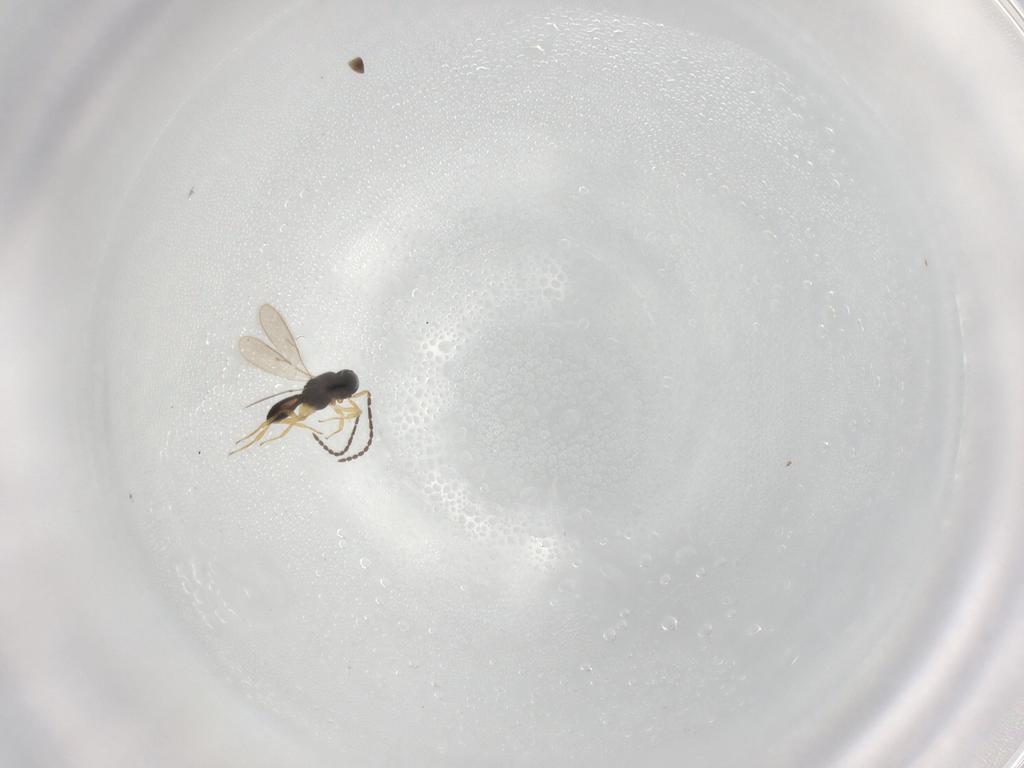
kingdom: Animalia
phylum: Arthropoda
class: Insecta
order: Hymenoptera
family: Scelionidae
